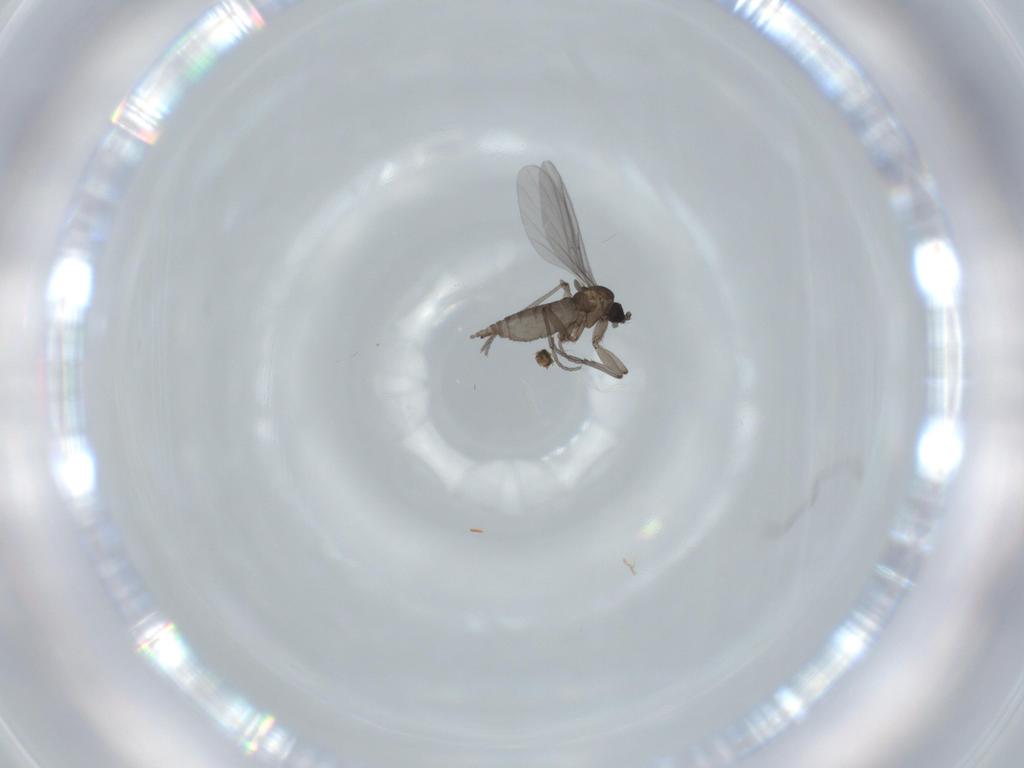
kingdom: Animalia
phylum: Arthropoda
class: Insecta
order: Diptera
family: Sciaridae
